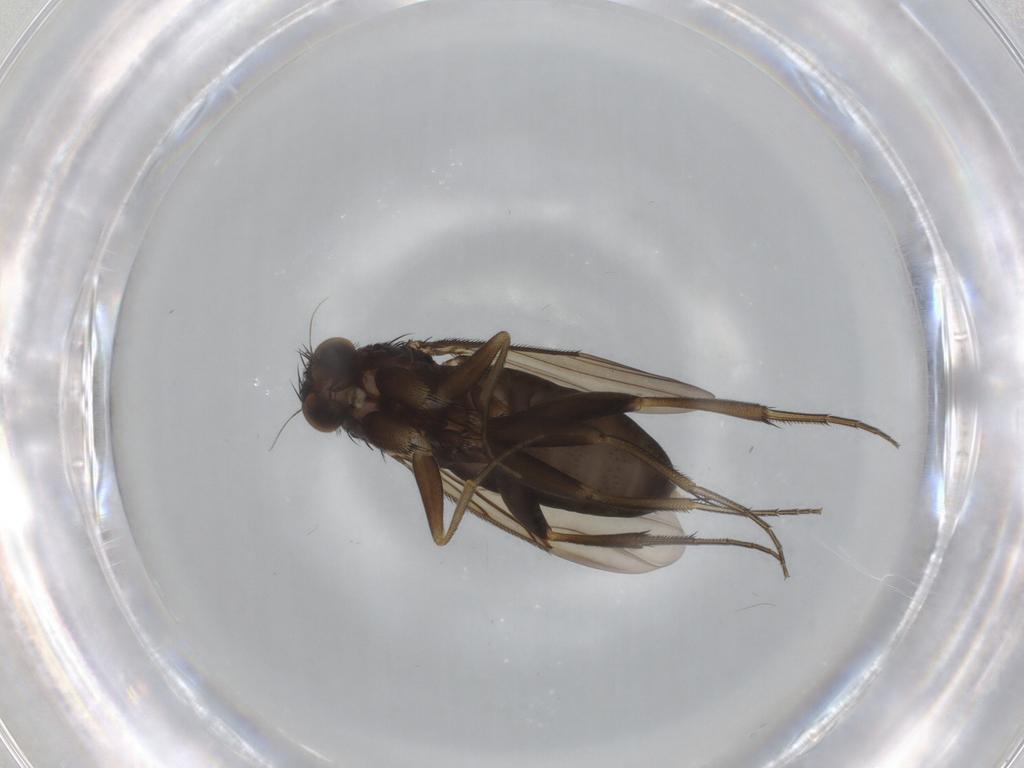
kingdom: Animalia
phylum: Arthropoda
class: Insecta
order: Diptera
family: Phoridae
